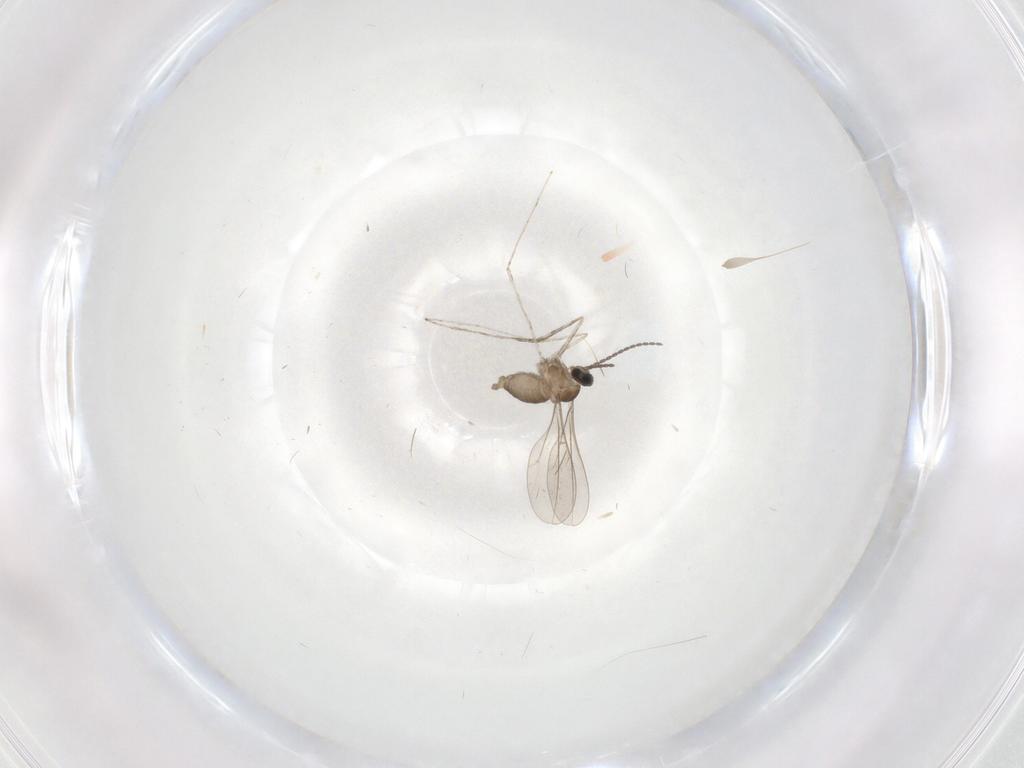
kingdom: Animalia
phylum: Arthropoda
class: Insecta
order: Diptera
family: Cecidomyiidae
